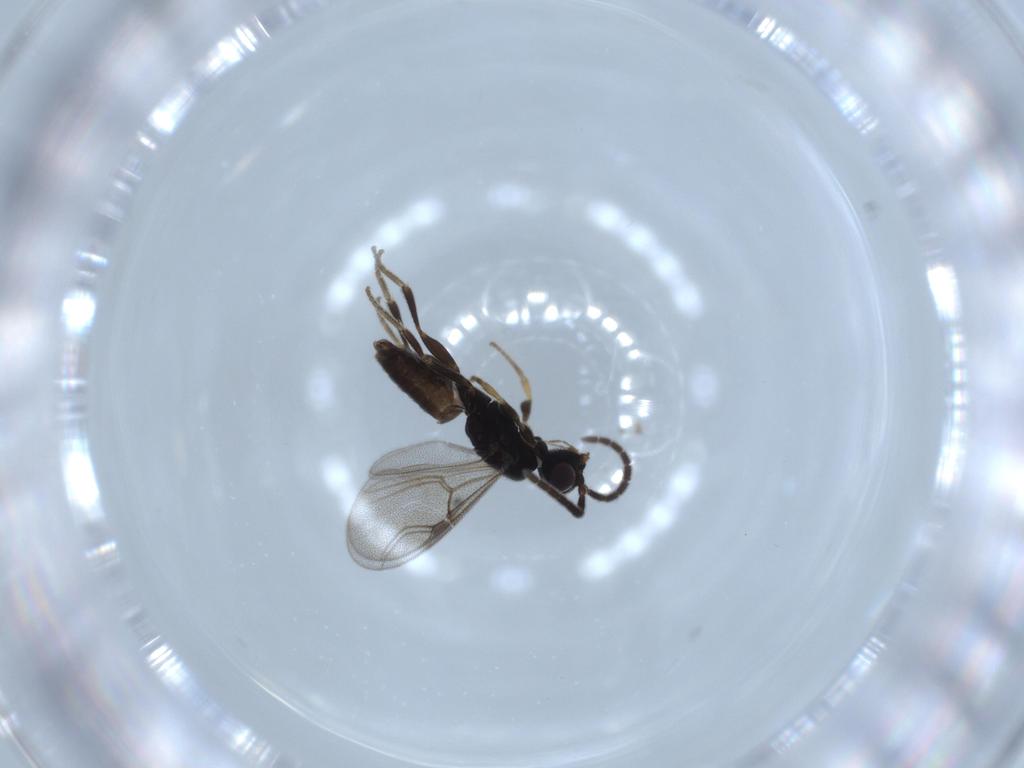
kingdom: Animalia
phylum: Arthropoda
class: Insecta
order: Hymenoptera
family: Dryinidae
